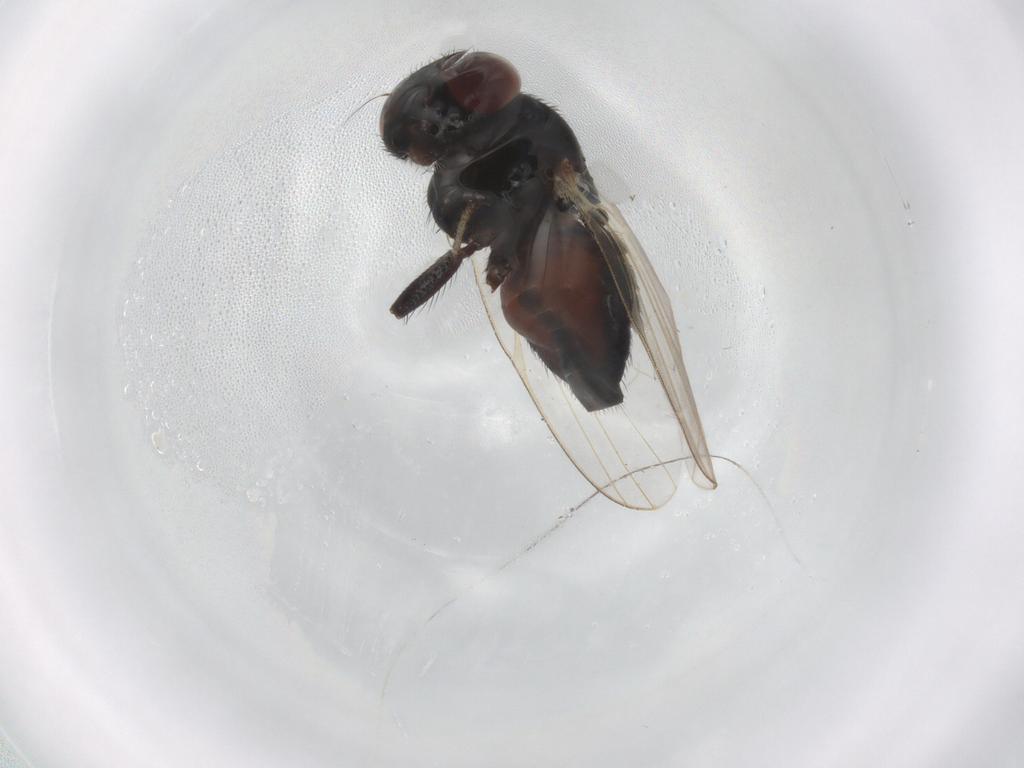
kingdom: Animalia
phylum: Arthropoda
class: Insecta
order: Diptera
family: Lonchaeidae
